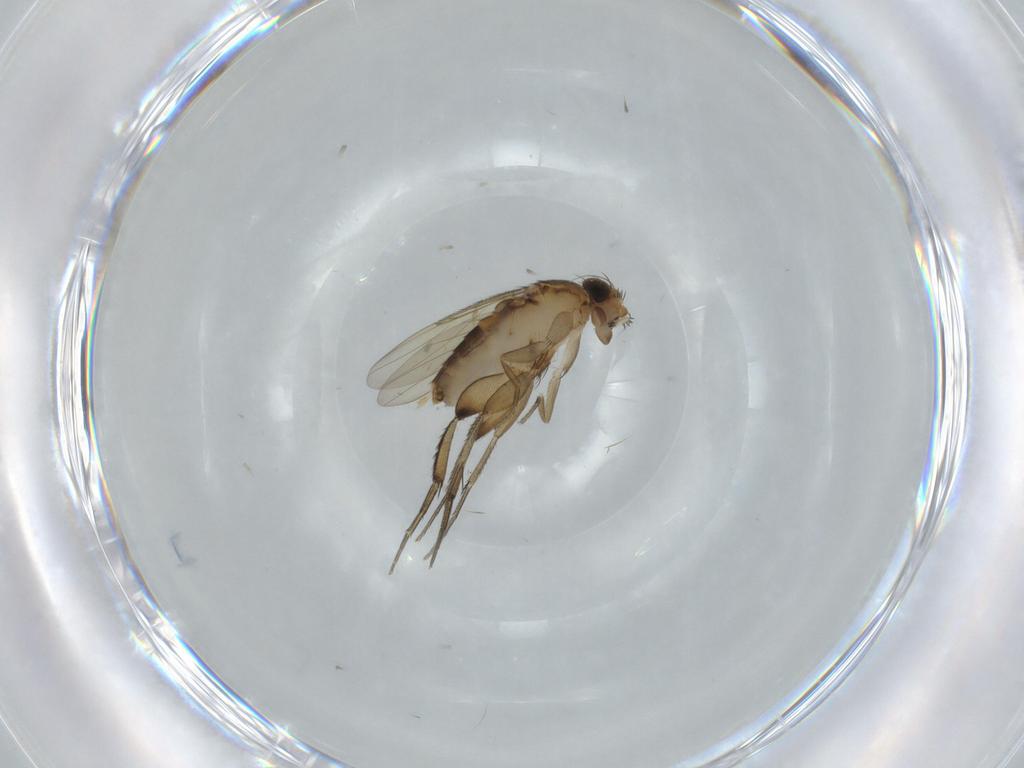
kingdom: Animalia
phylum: Arthropoda
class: Insecta
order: Diptera
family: Phoridae
